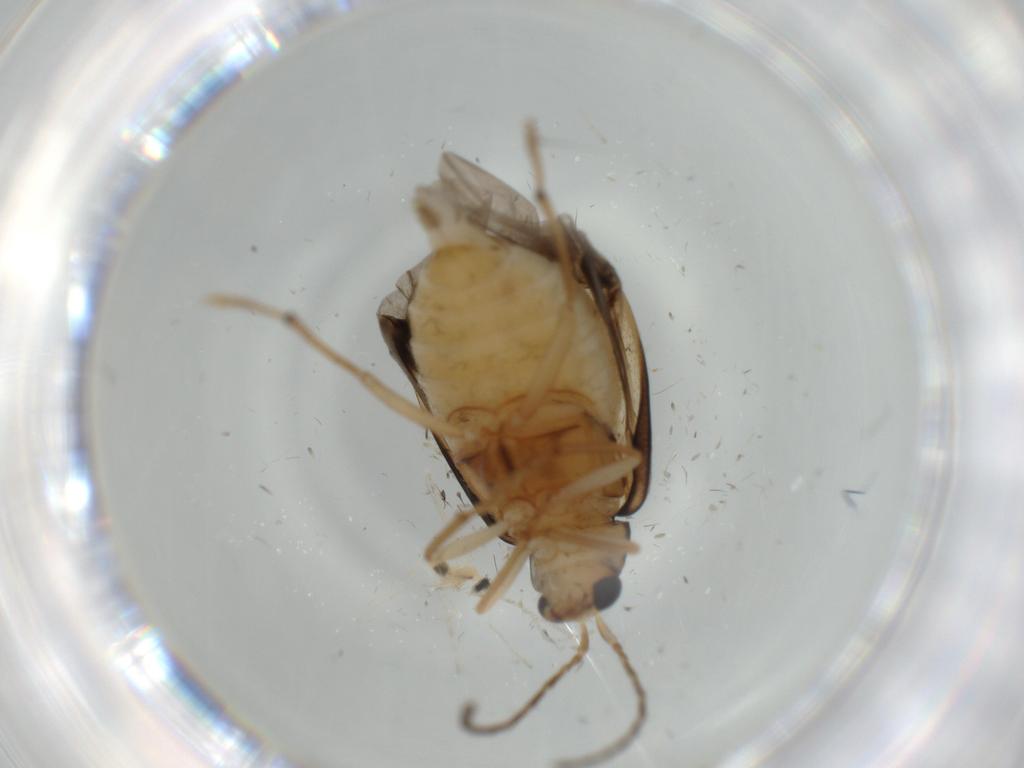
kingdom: Animalia
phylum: Arthropoda
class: Insecta
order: Coleoptera
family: Chrysomelidae
